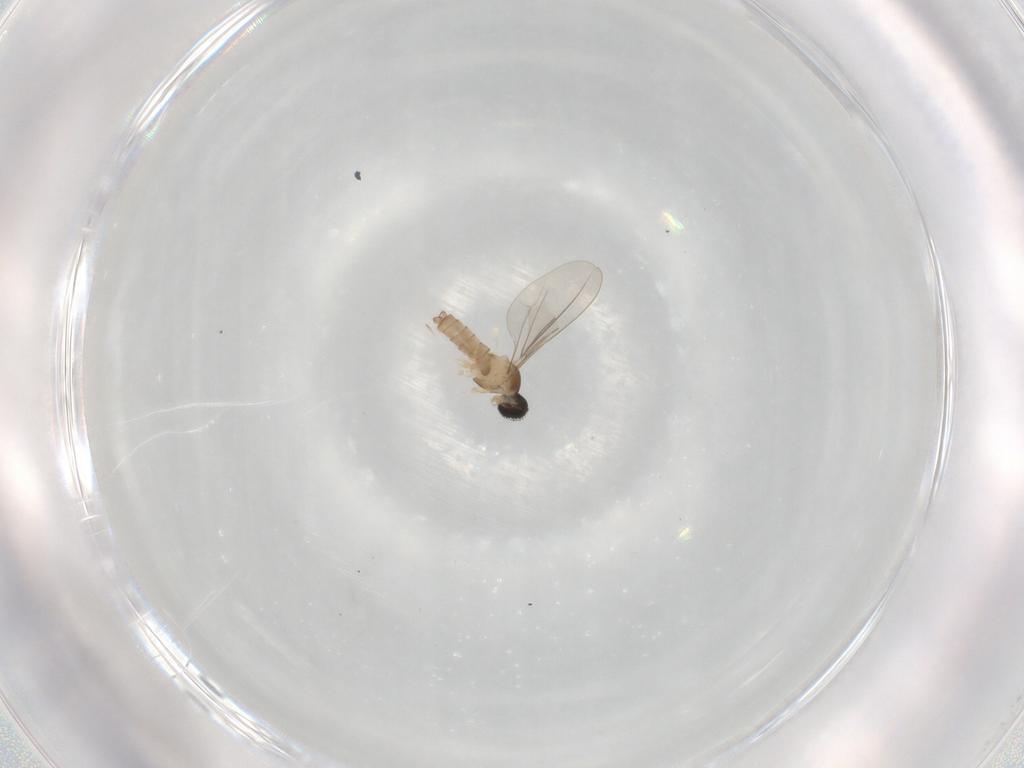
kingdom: Animalia
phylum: Arthropoda
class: Insecta
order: Diptera
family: Cecidomyiidae
